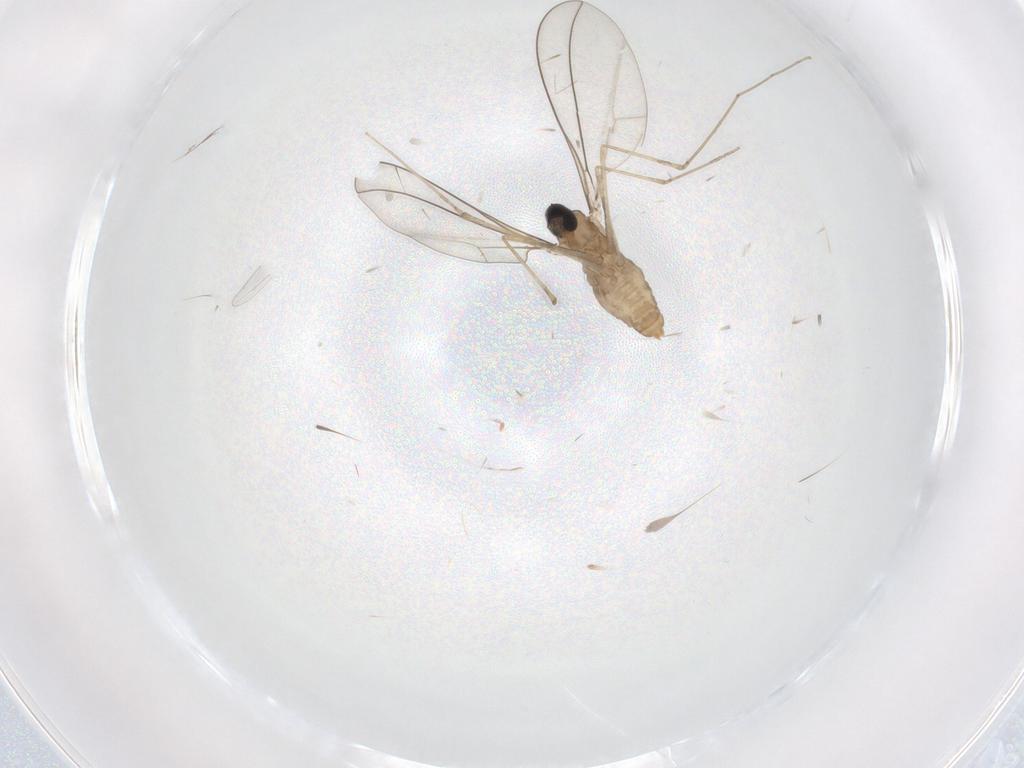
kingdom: Animalia
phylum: Arthropoda
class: Insecta
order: Diptera
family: Cecidomyiidae
